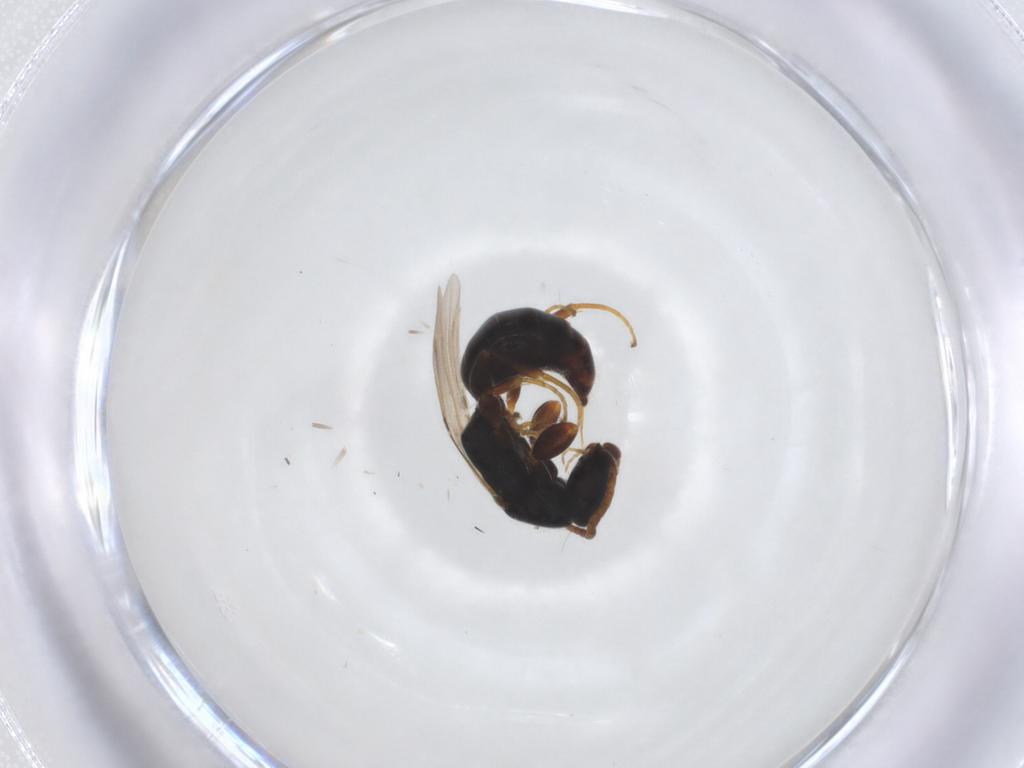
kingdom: Animalia
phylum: Arthropoda
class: Insecta
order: Hymenoptera
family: Bethylidae
